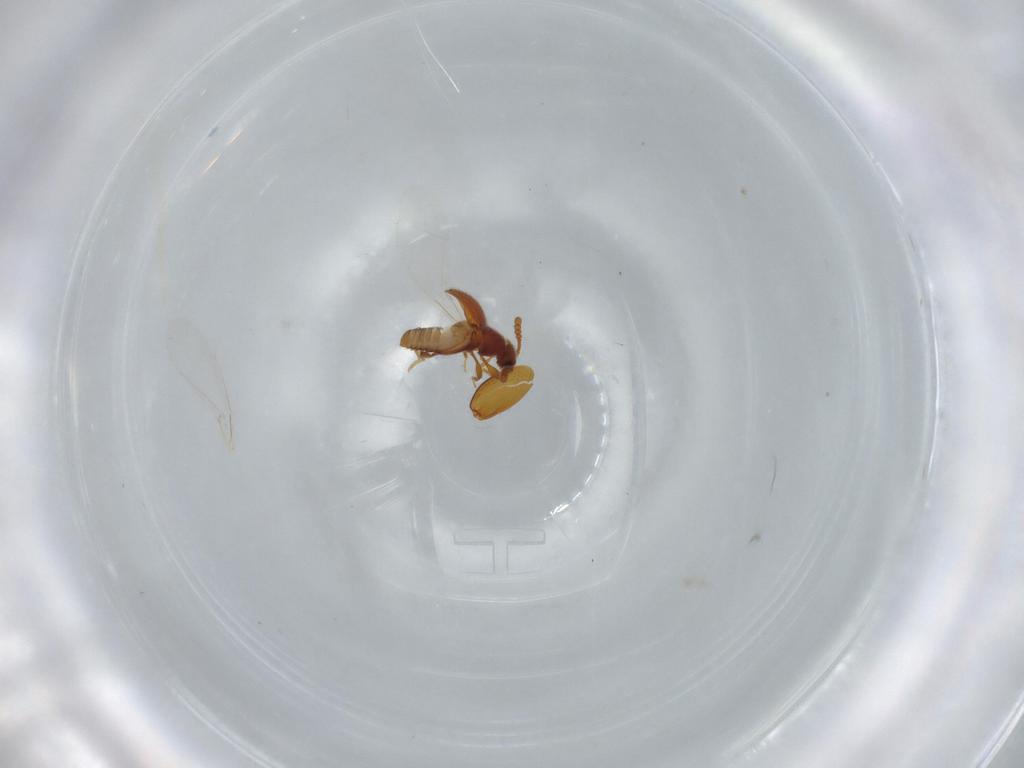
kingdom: Animalia
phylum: Arthropoda
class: Insecta
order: Coleoptera
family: Staphylinidae
